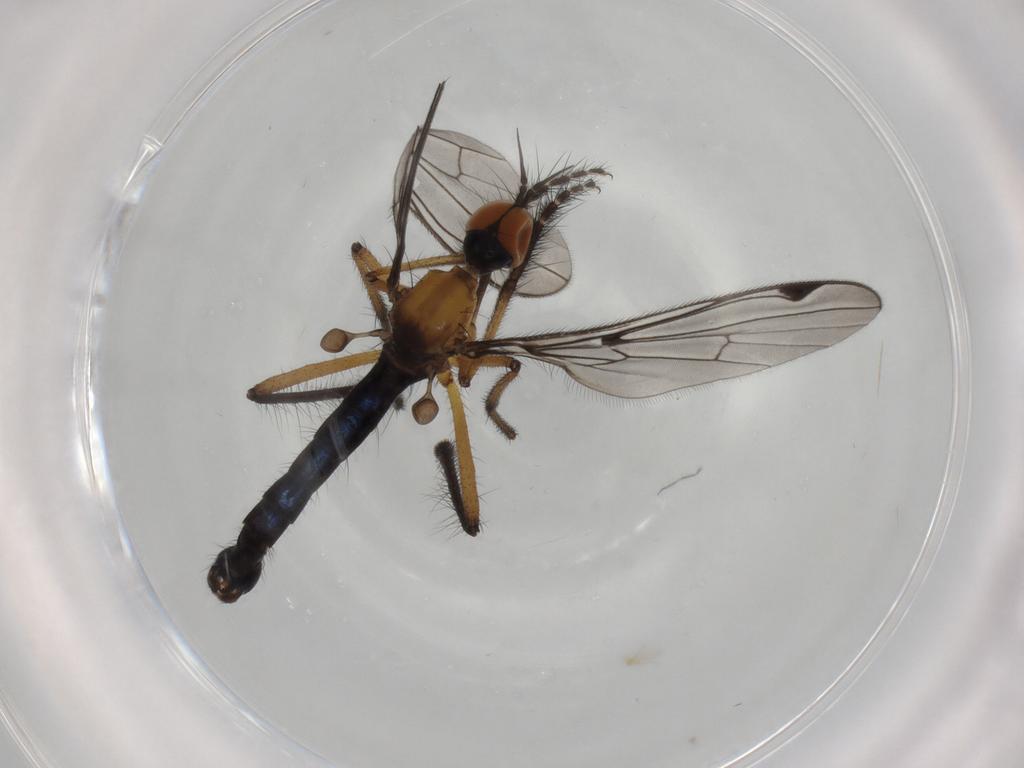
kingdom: Animalia
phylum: Arthropoda
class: Insecta
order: Diptera
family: Empididae
